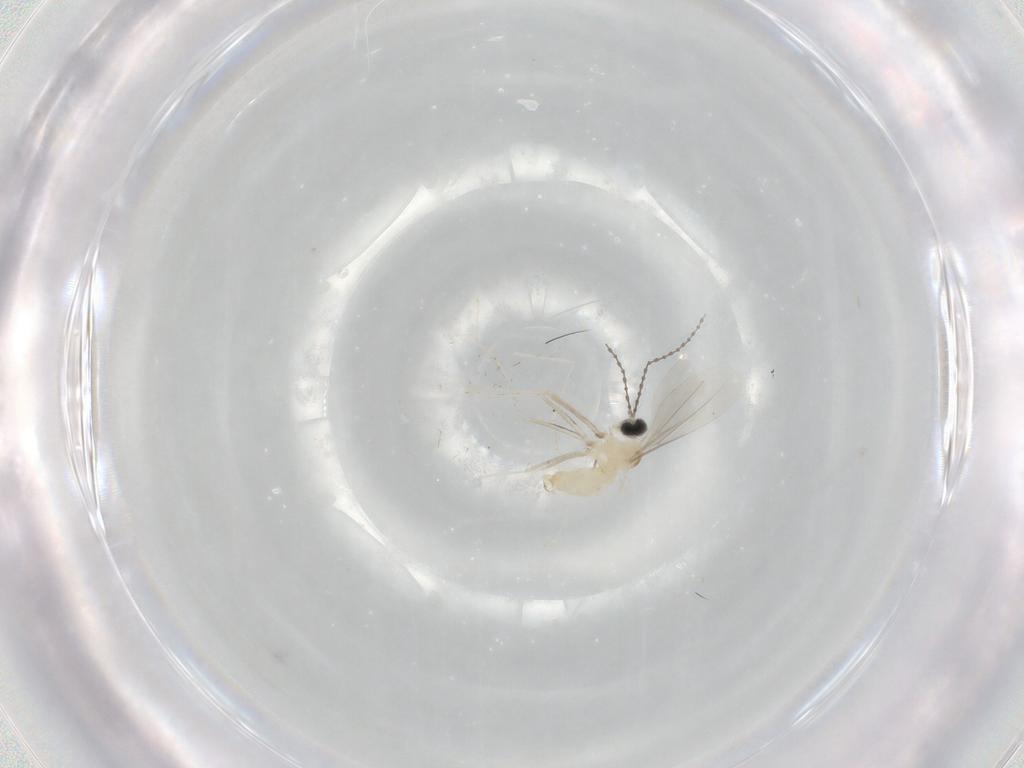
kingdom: Animalia
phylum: Arthropoda
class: Insecta
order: Diptera
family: Cecidomyiidae
